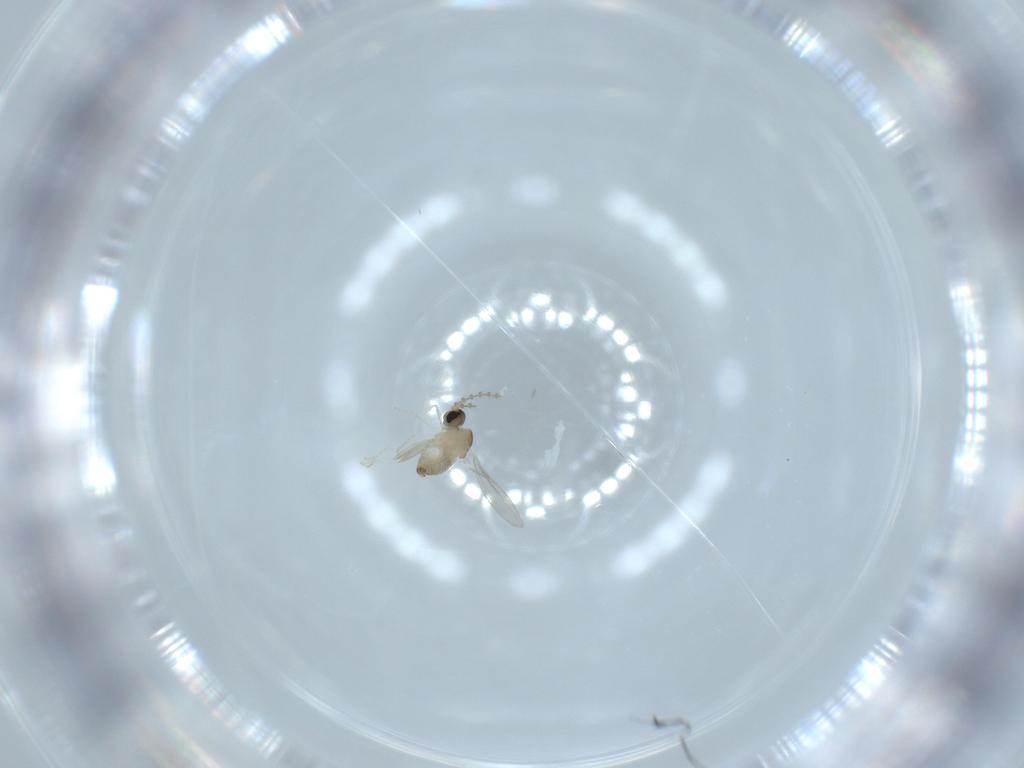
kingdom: Animalia
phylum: Arthropoda
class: Insecta
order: Diptera
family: Cecidomyiidae
